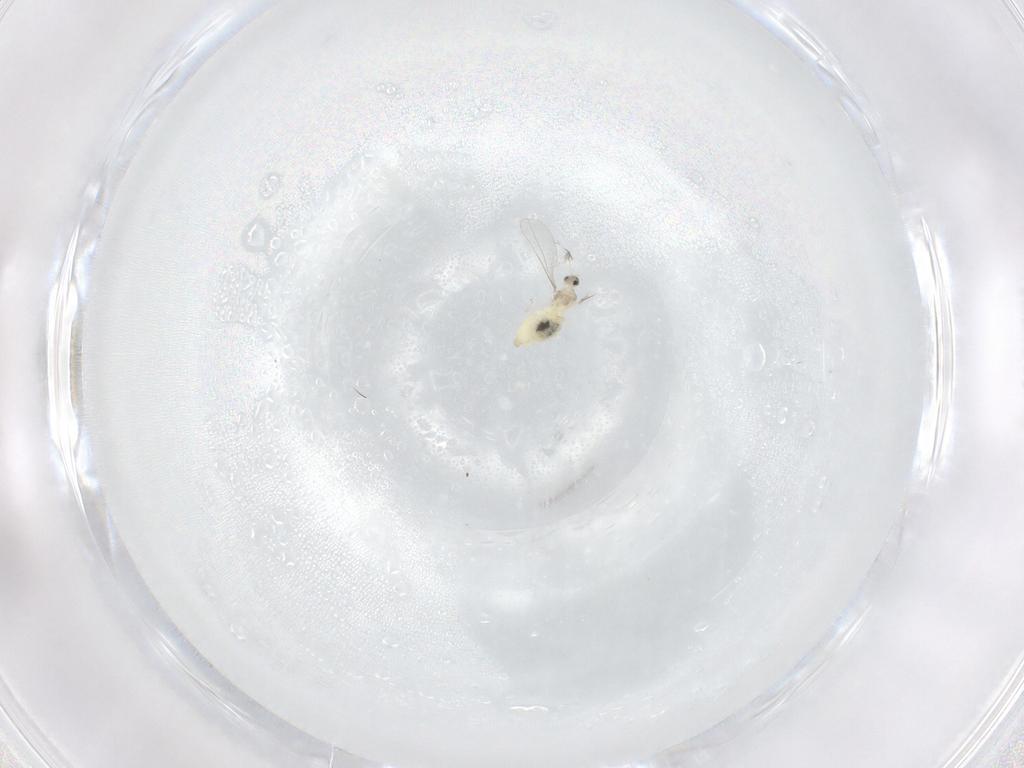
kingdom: Animalia
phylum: Arthropoda
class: Insecta
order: Diptera
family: Cecidomyiidae
